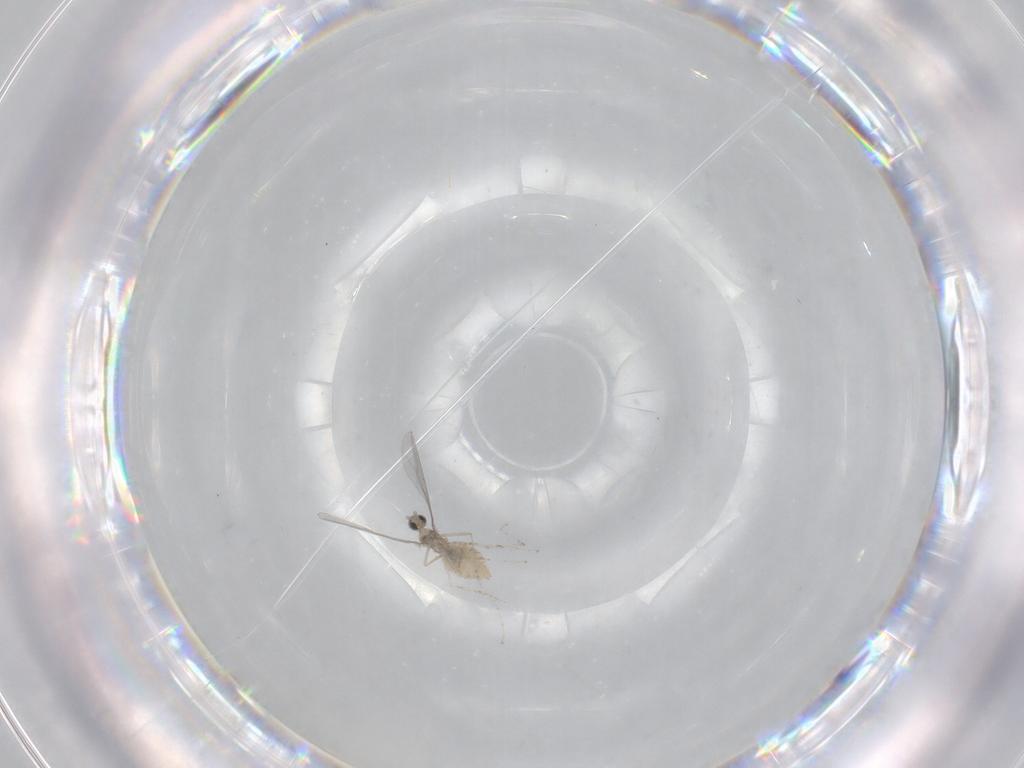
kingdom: Animalia
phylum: Arthropoda
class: Insecta
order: Diptera
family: Cecidomyiidae
